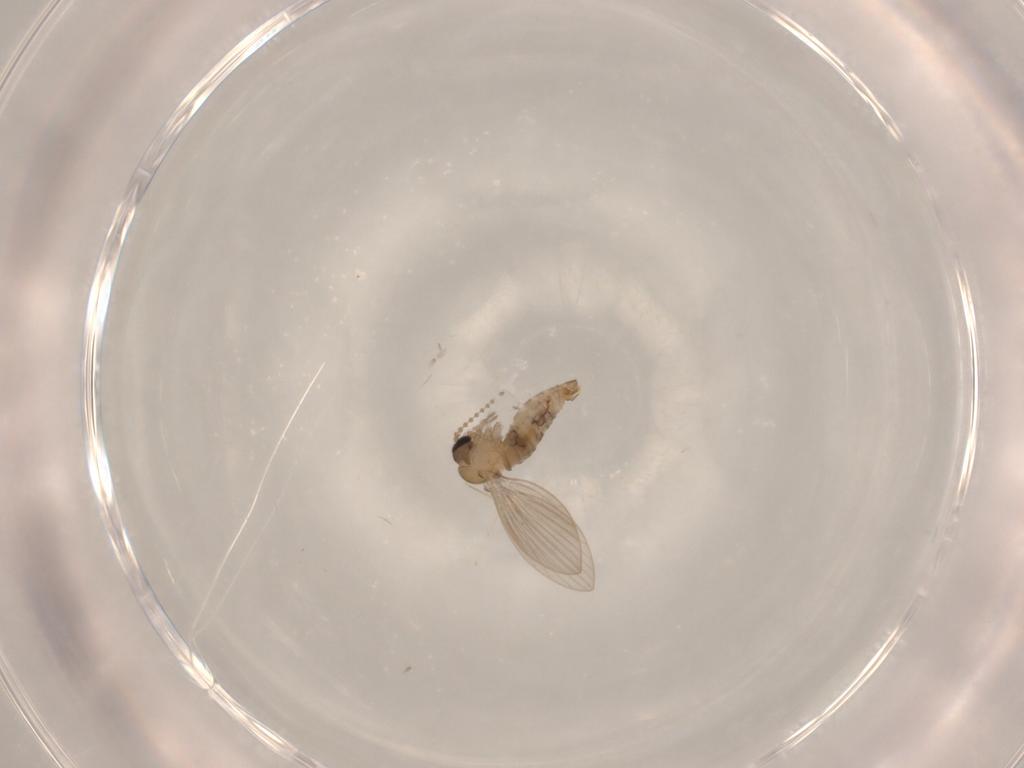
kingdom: Animalia
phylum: Arthropoda
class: Insecta
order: Diptera
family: Psychodidae
